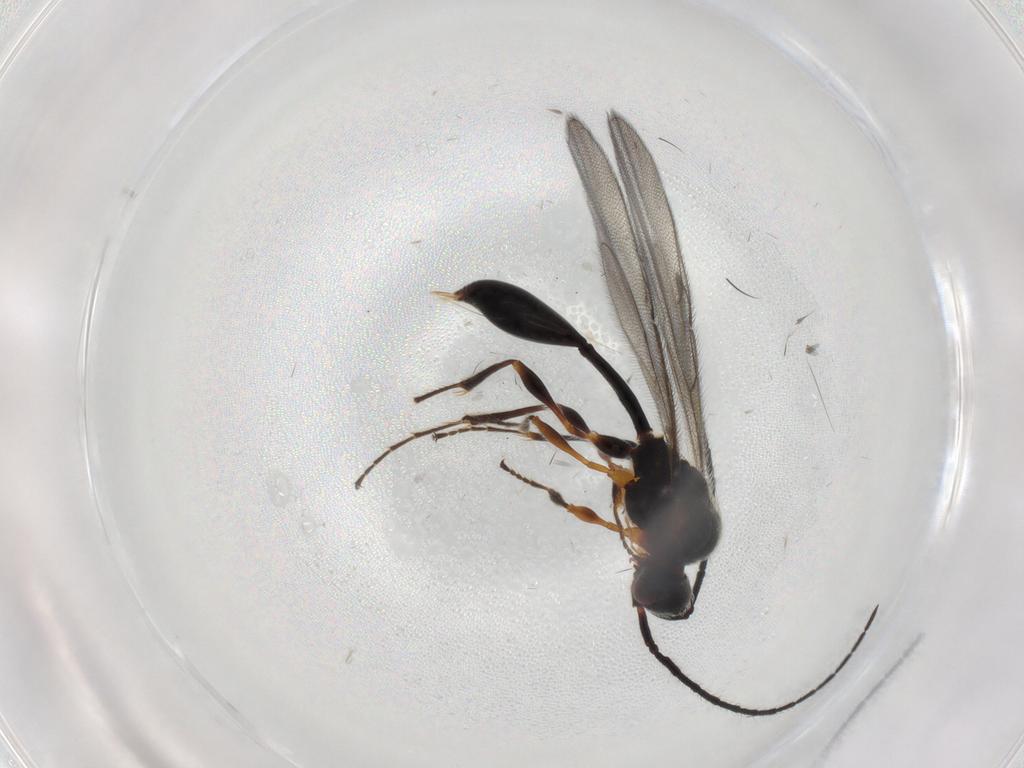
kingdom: Animalia
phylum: Arthropoda
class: Insecta
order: Hymenoptera
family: Diapriidae
